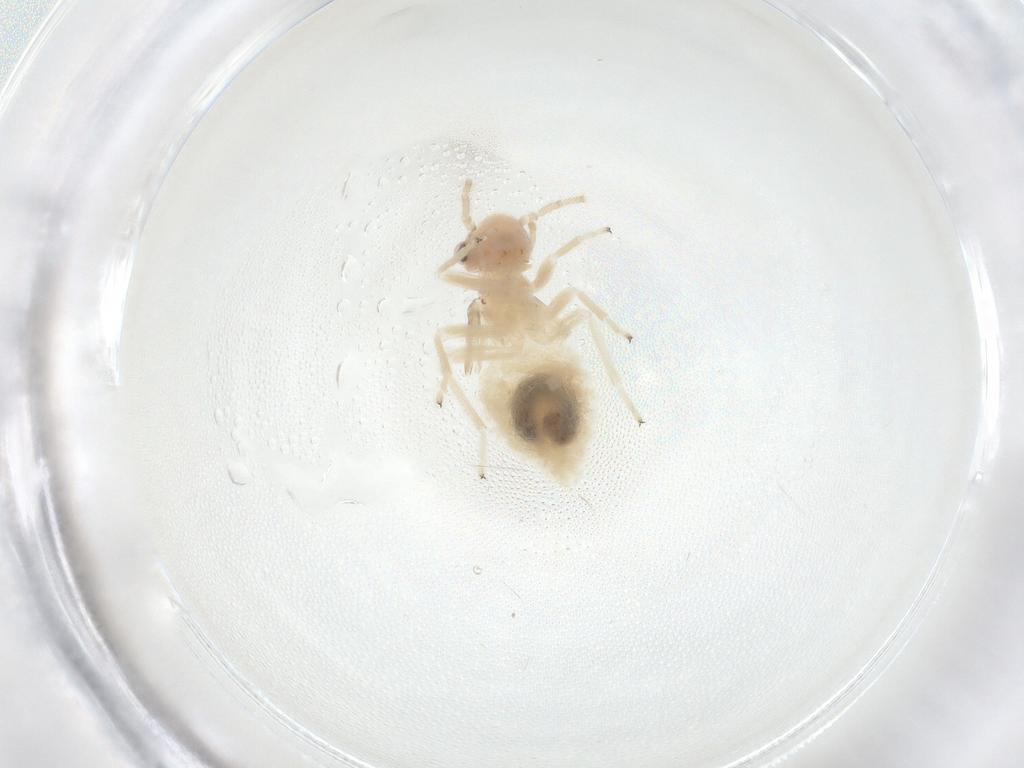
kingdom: Animalia
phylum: Arthropoda
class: Insecta
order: Psocodea
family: Amphipsocidae
